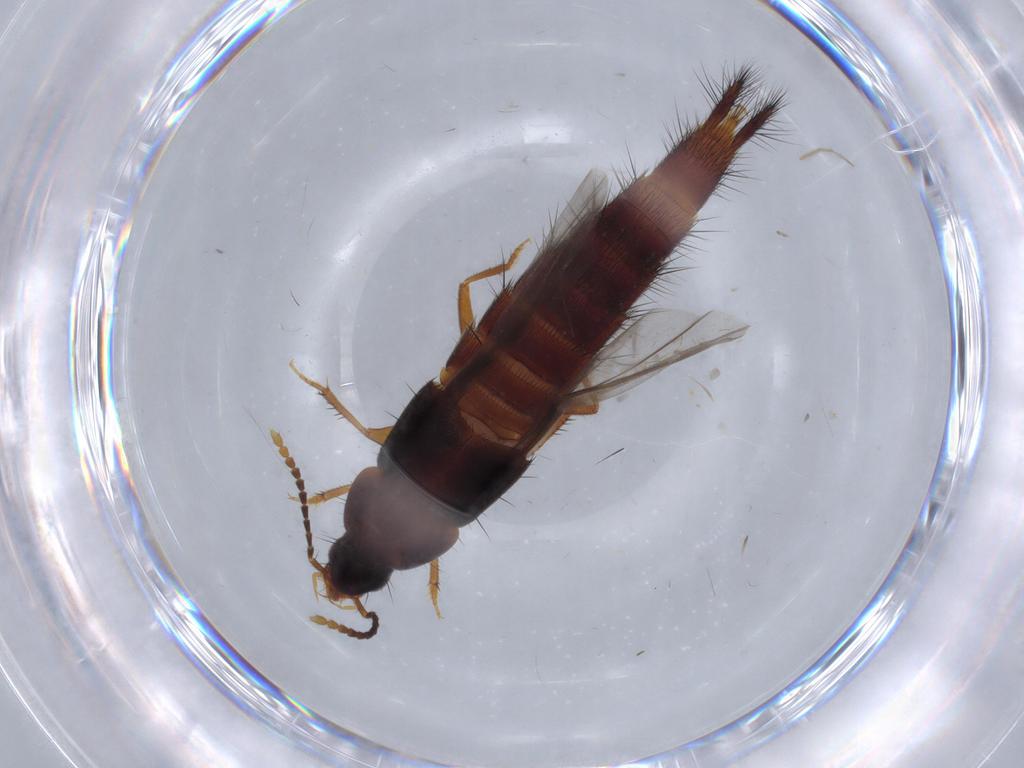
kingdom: Animalia
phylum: Arthropoda
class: Insecta
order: Coleoptera
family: Staphylinidae
